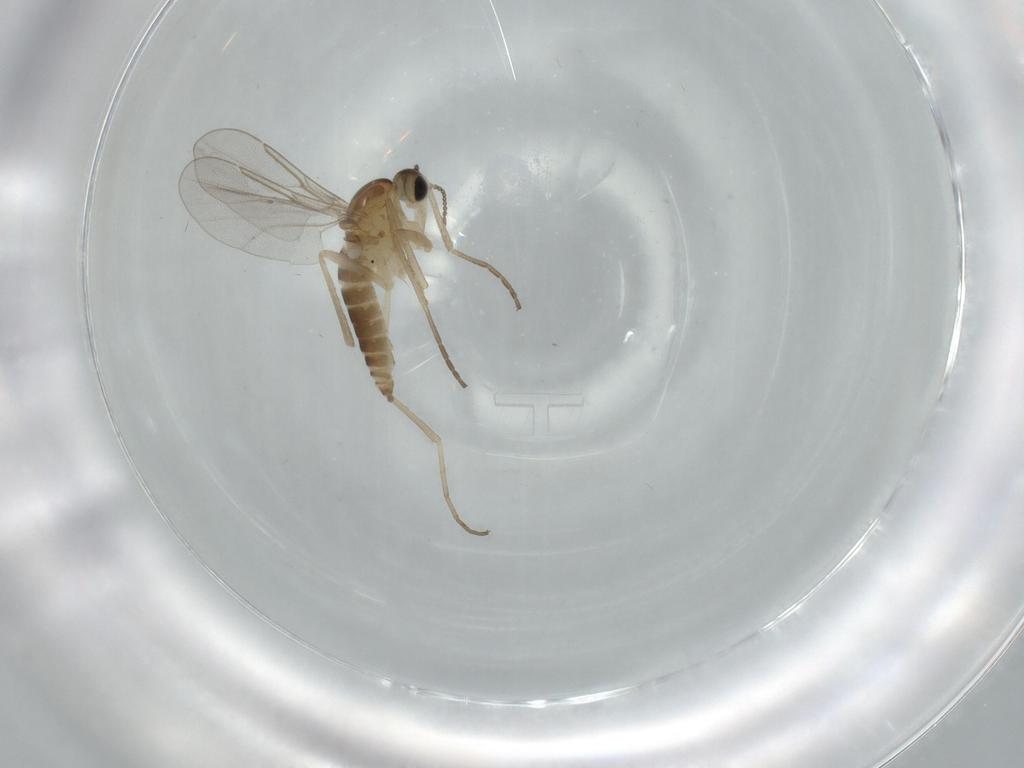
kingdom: Animalia
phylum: Arthropoda
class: Insecta
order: Diptera
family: Cecidomyiidae
